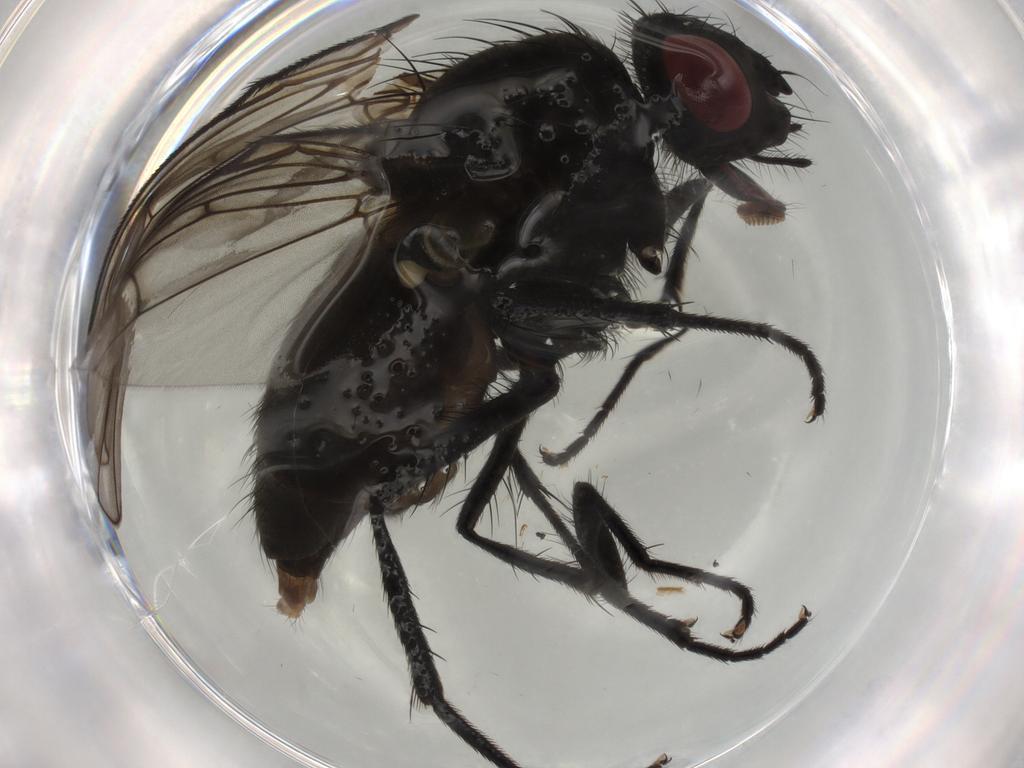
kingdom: Animalia
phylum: Arthropoda
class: Insecta
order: Diptera
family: Muscidae
